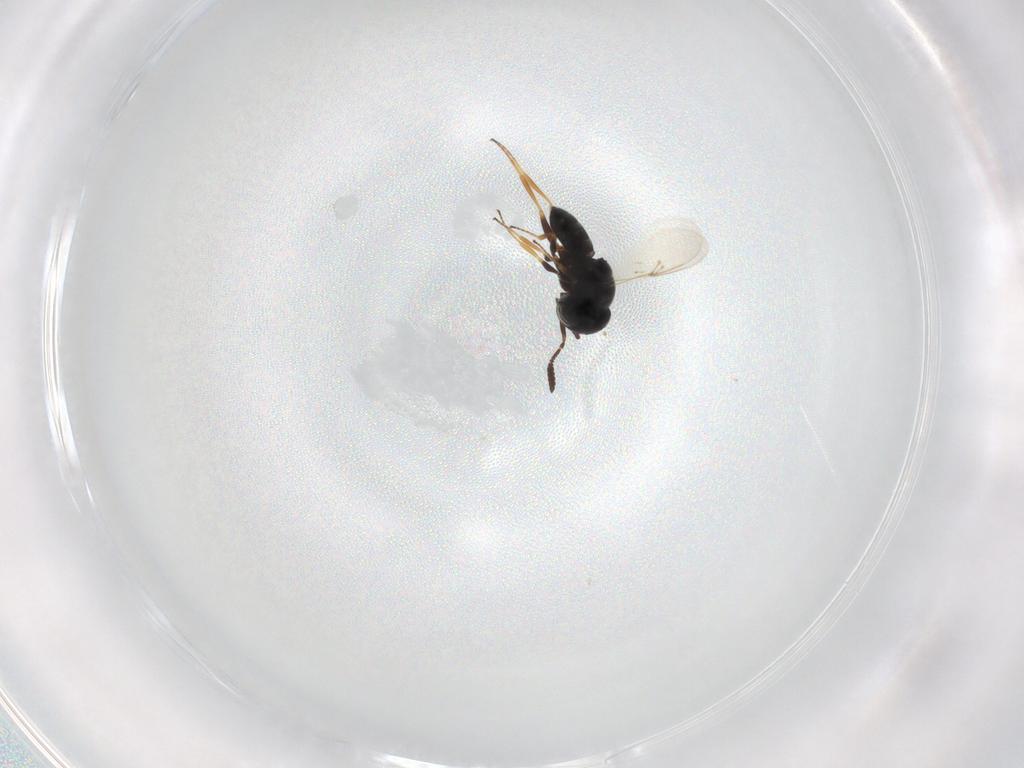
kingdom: Animalia
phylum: Arthropoda
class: Insecta
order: Hymenoptera
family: Scelionidae
